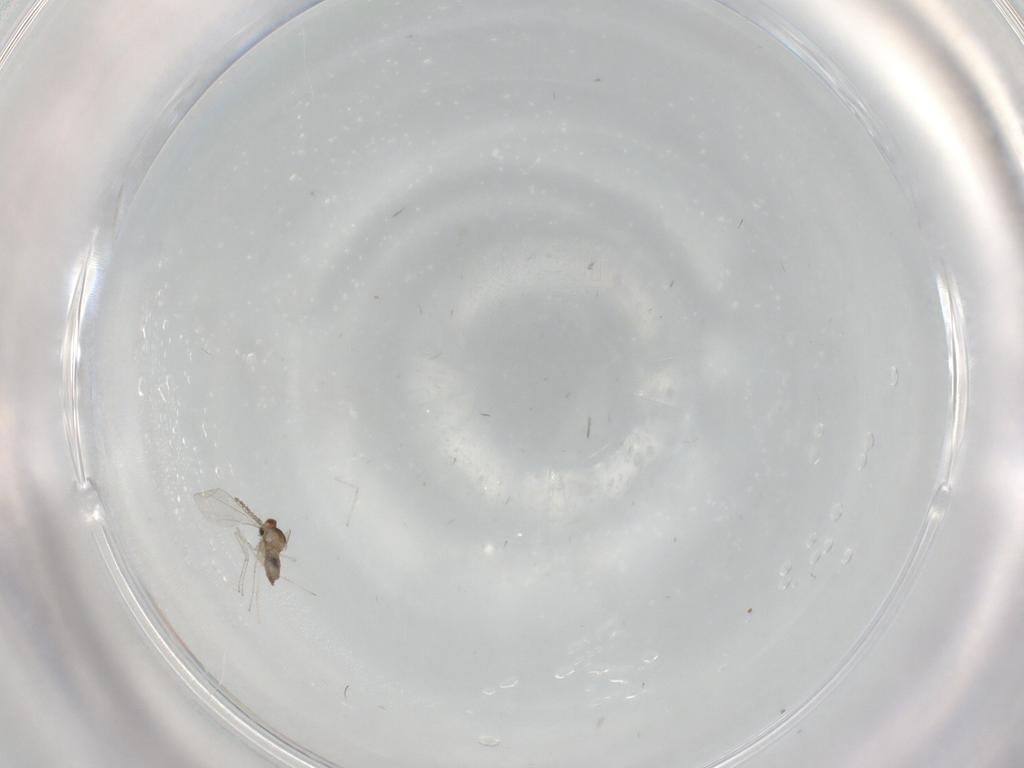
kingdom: Animalia
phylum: Arthropoda
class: Insecta
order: Diptera
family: Cecidomyiidae
